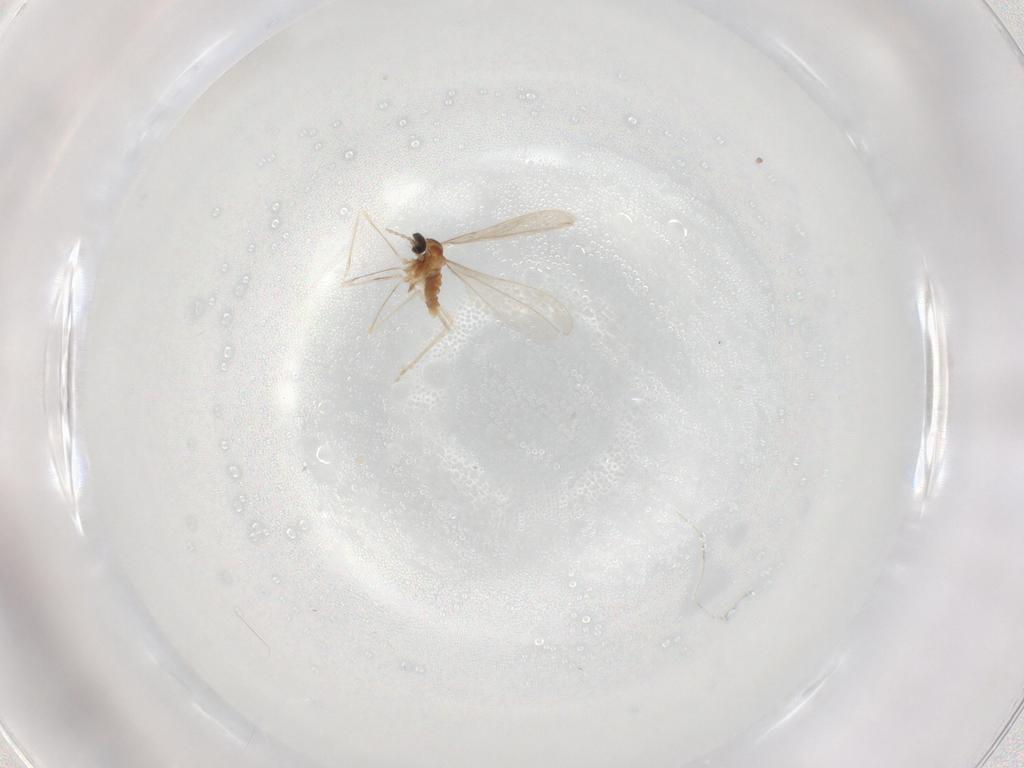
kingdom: Animalia
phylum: Arthropoda
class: Insecta
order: Diptera
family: Cecidomyiidae
